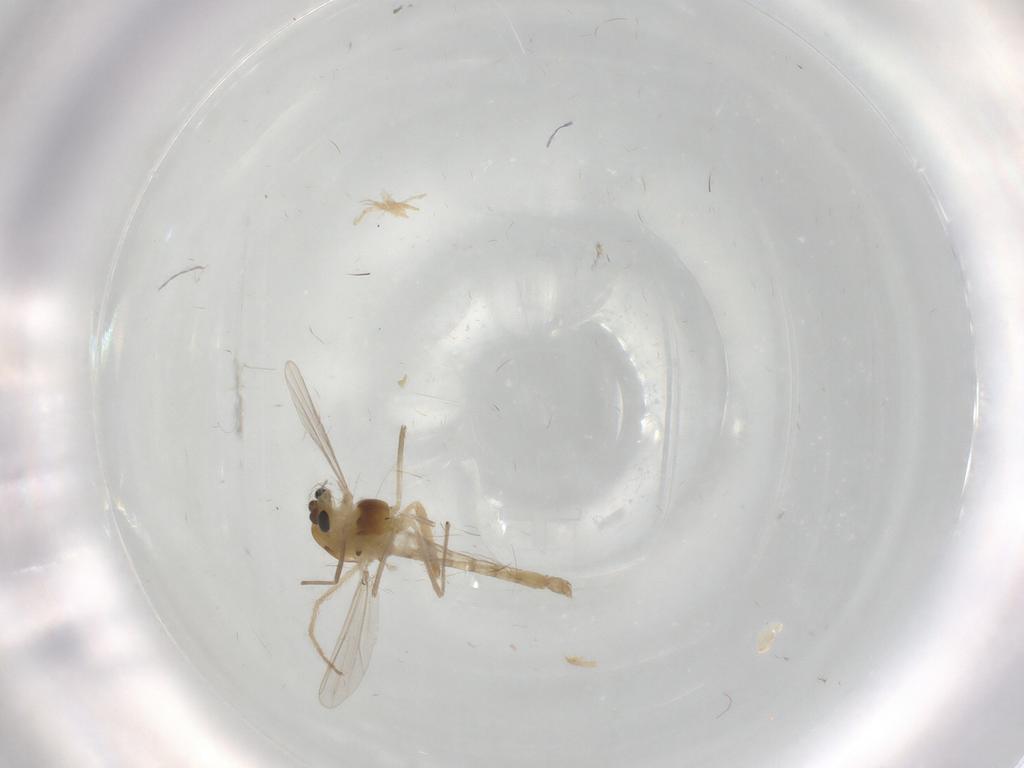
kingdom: Animalia
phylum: Arthropoda
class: Insecta
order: Diptera
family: Chironomidae
